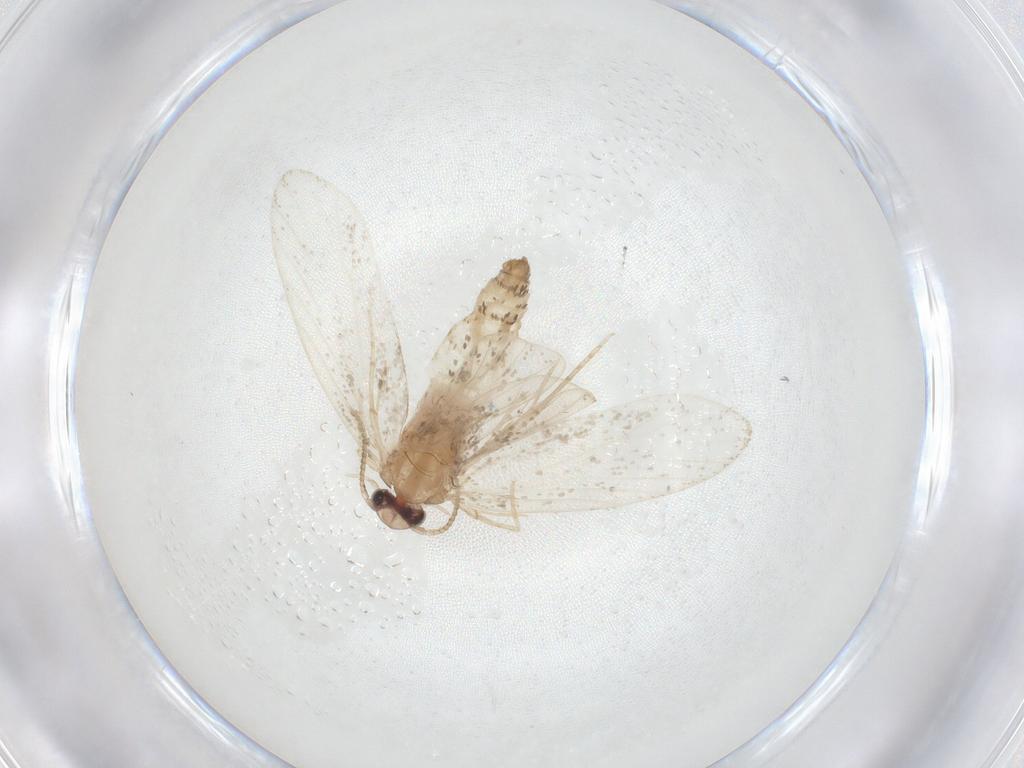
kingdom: Animalia
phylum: Arthropoda
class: Insecta
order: Lepidoptera
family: Psychidae
